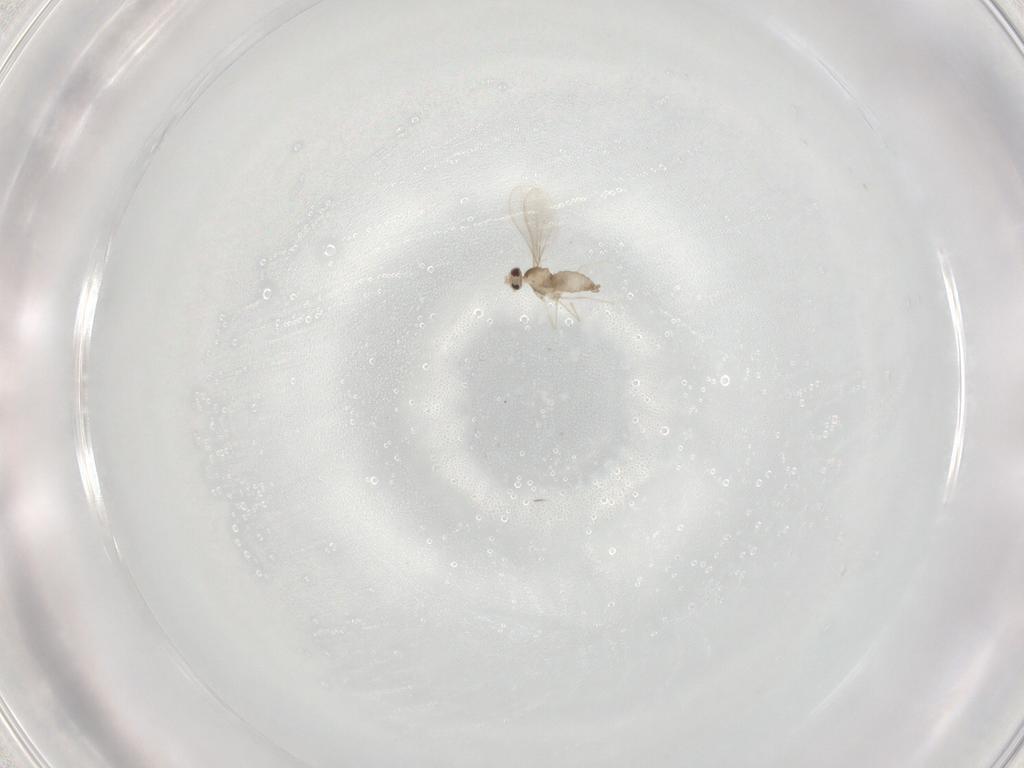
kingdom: Animalia
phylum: Arthropoda
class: Insecta
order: Diptera
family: Cecidomyiidae
